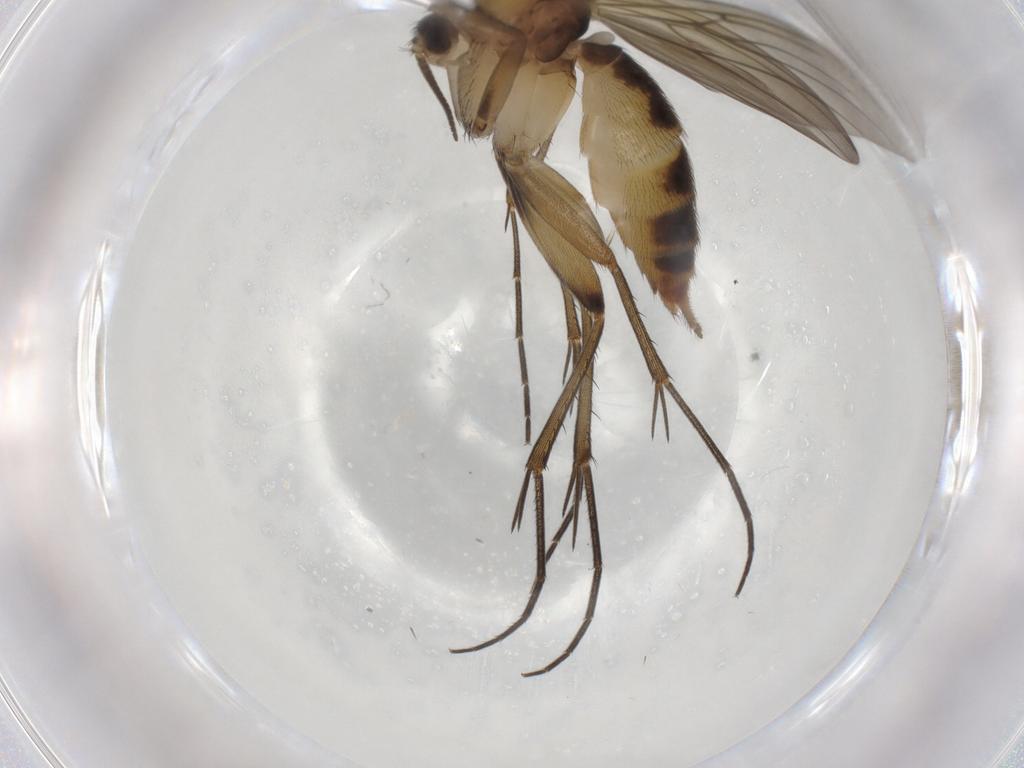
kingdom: Animalia
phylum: Arthropoda
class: Insecta
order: Diptera
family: Mycetophilidae
